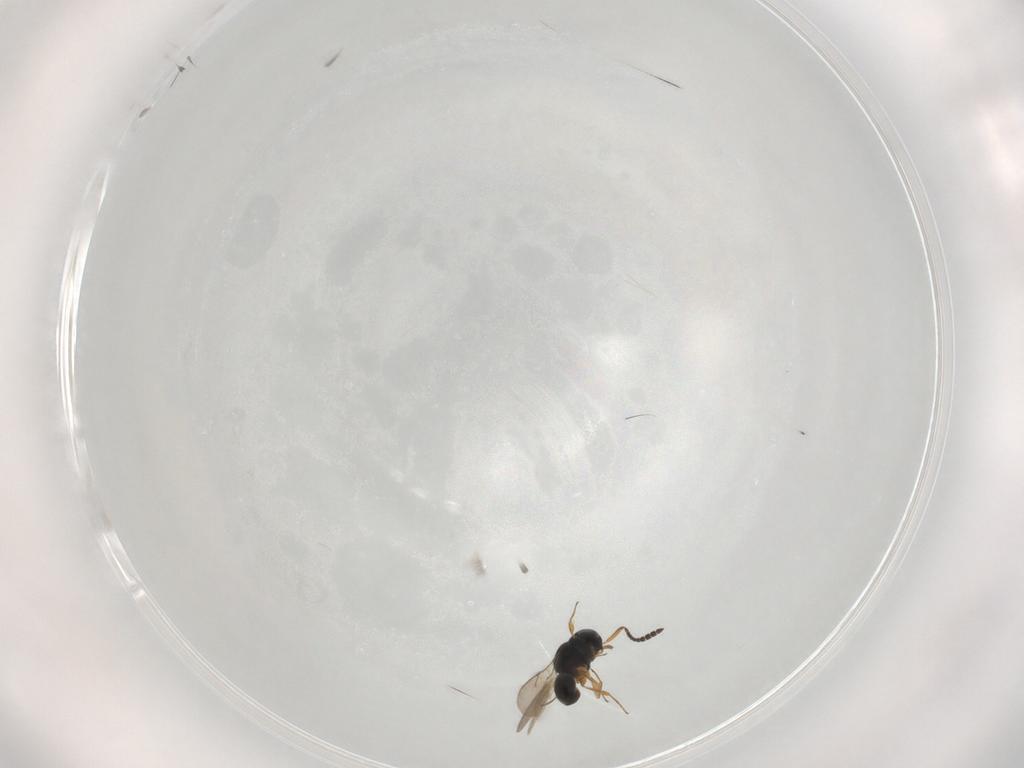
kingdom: Animalia
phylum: Arthropoda
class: Insecta
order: Hymenoptera
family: Scelionidae
